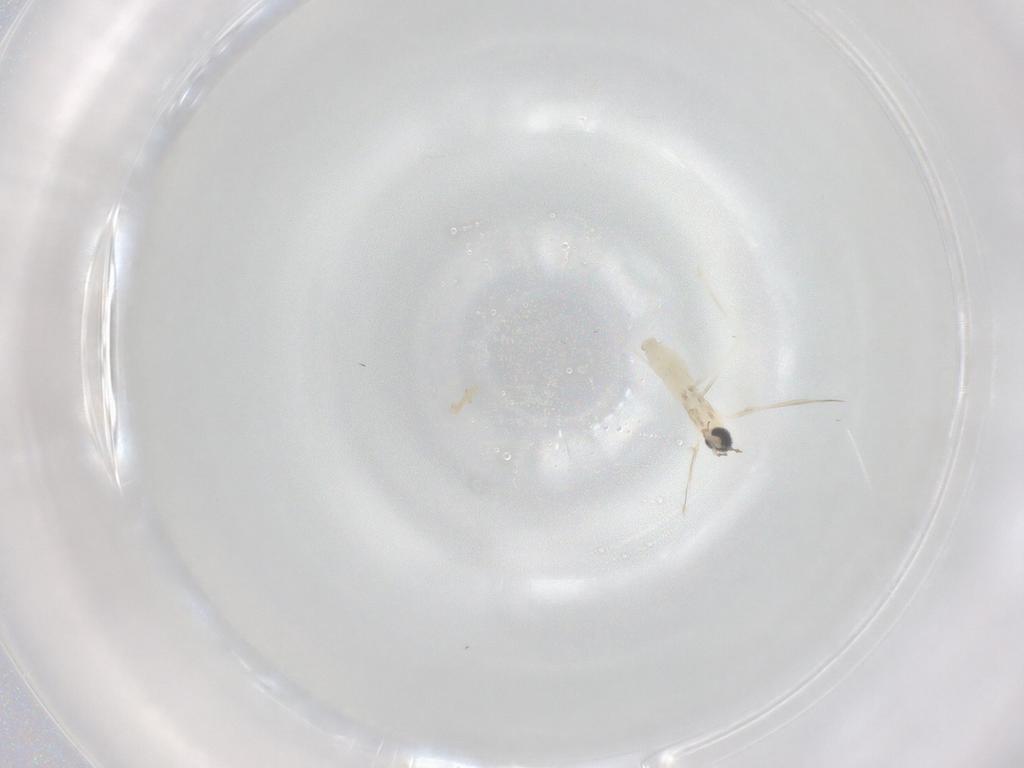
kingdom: Animalia
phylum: Arthropoda
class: Insecta
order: Diptera
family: Cecidomyiidae
